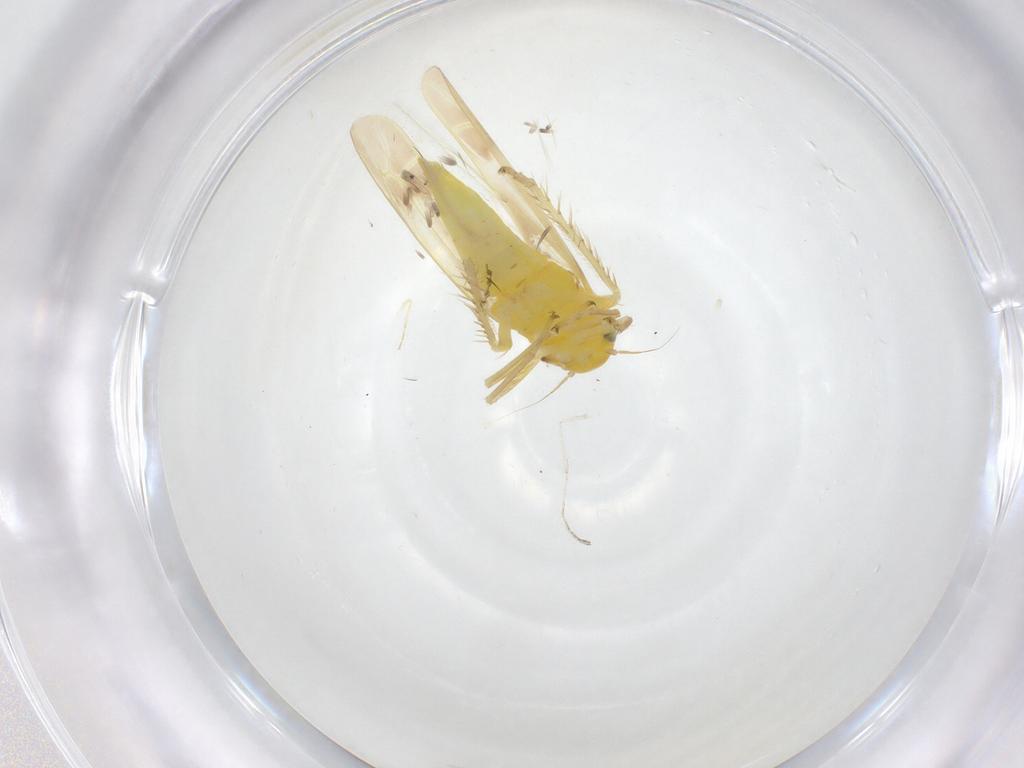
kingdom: Animalia
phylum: Arthropoda
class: Insecta
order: Hemiptera
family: Cicadellidae
